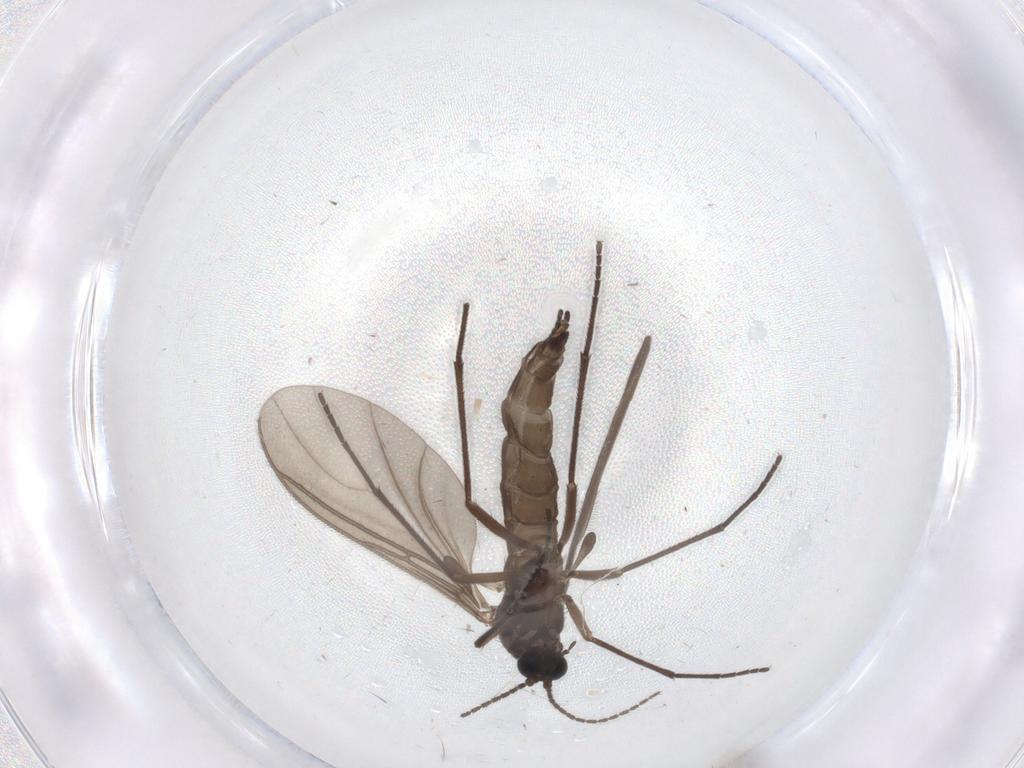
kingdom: Animalia
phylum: Arthropoda
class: Insecta
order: Diptera
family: Sciaridae
